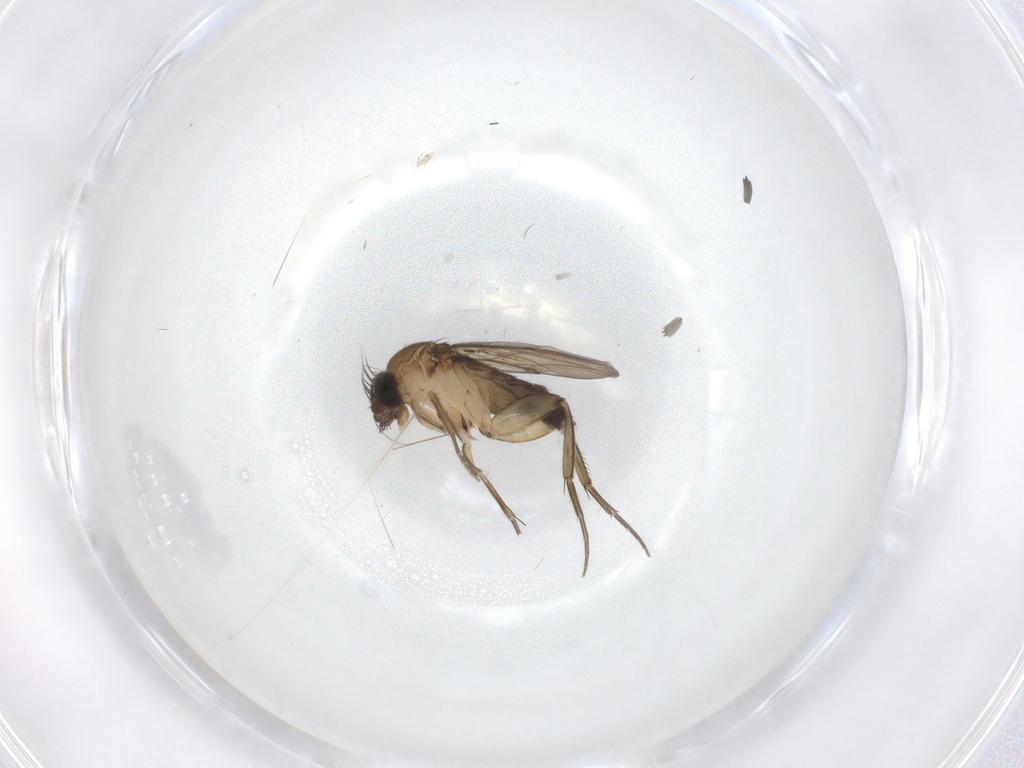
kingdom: Animalia
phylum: Arthropoda
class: Insecta
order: Diptera
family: Phoridae
